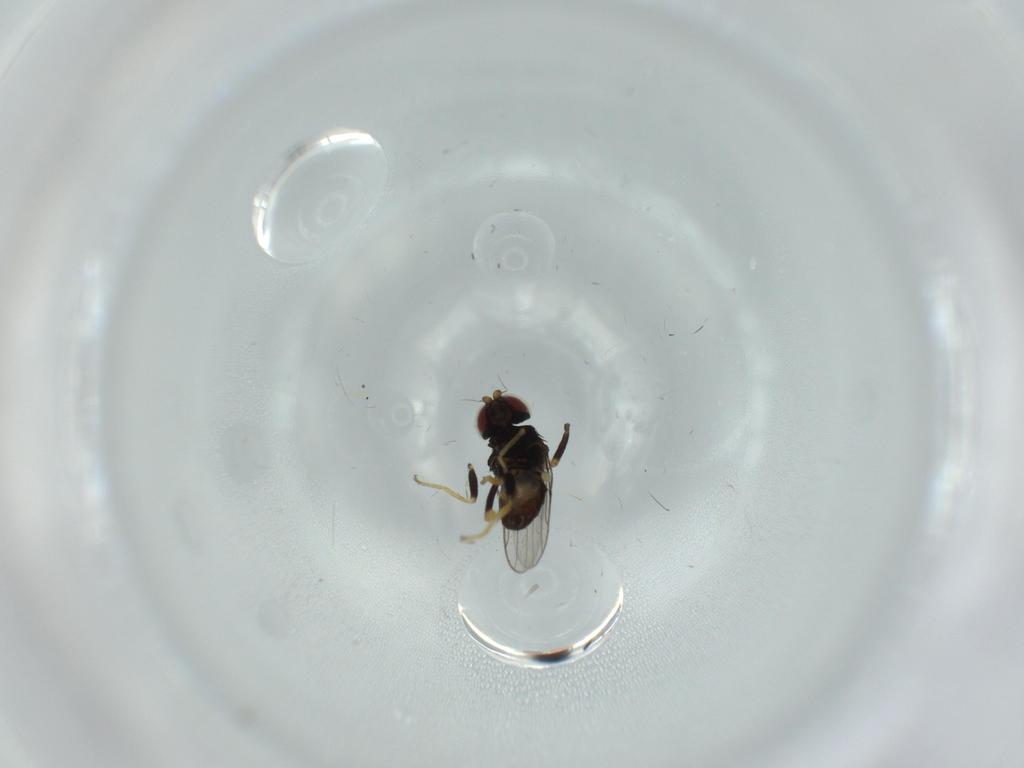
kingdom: Animalia
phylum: Arthropoda
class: Insecta
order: Diptera
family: Chloropidae
